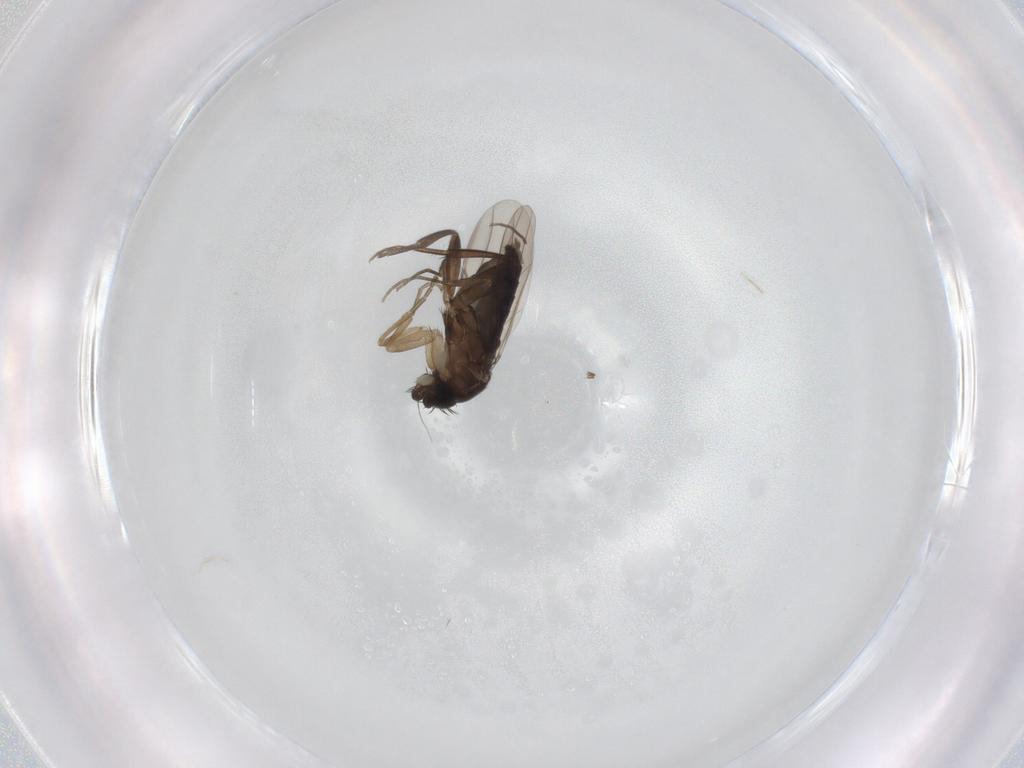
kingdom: Animalia
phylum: Arthropoda
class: Insecta
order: Diptera
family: Phoridae
